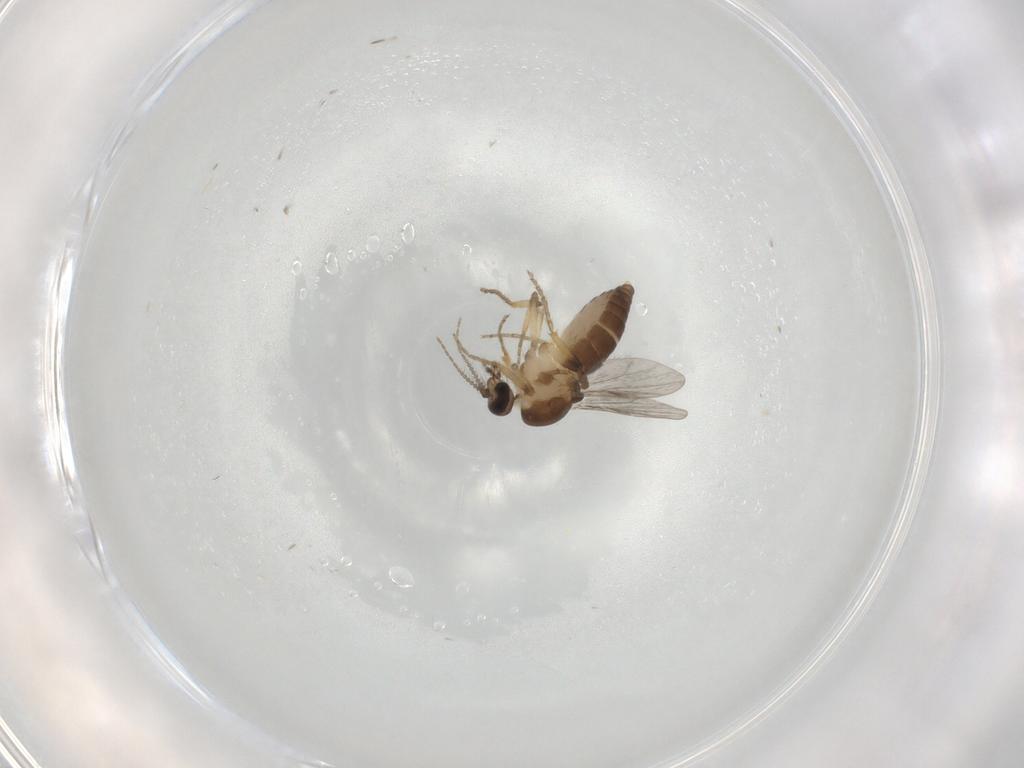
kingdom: Animalia
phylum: Arthropoda
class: Insecta
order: Diptera
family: Ceratopogonidae
